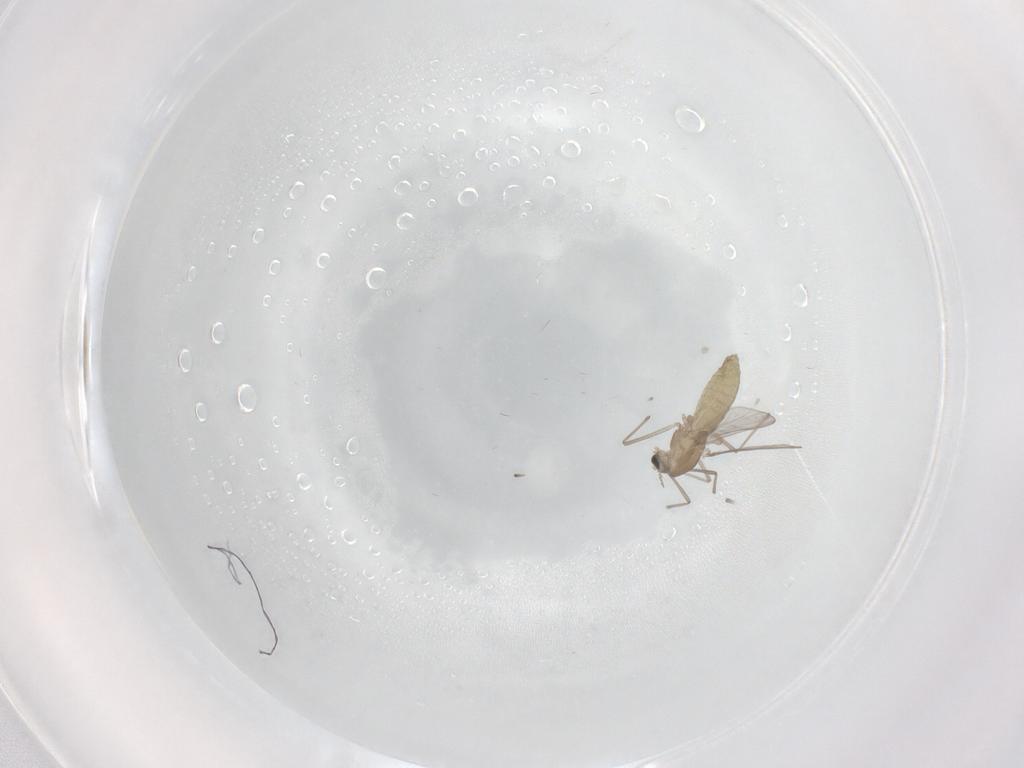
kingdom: Animalia
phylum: Arthropoda
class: Insecta
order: Diptera
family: Chironomidae
